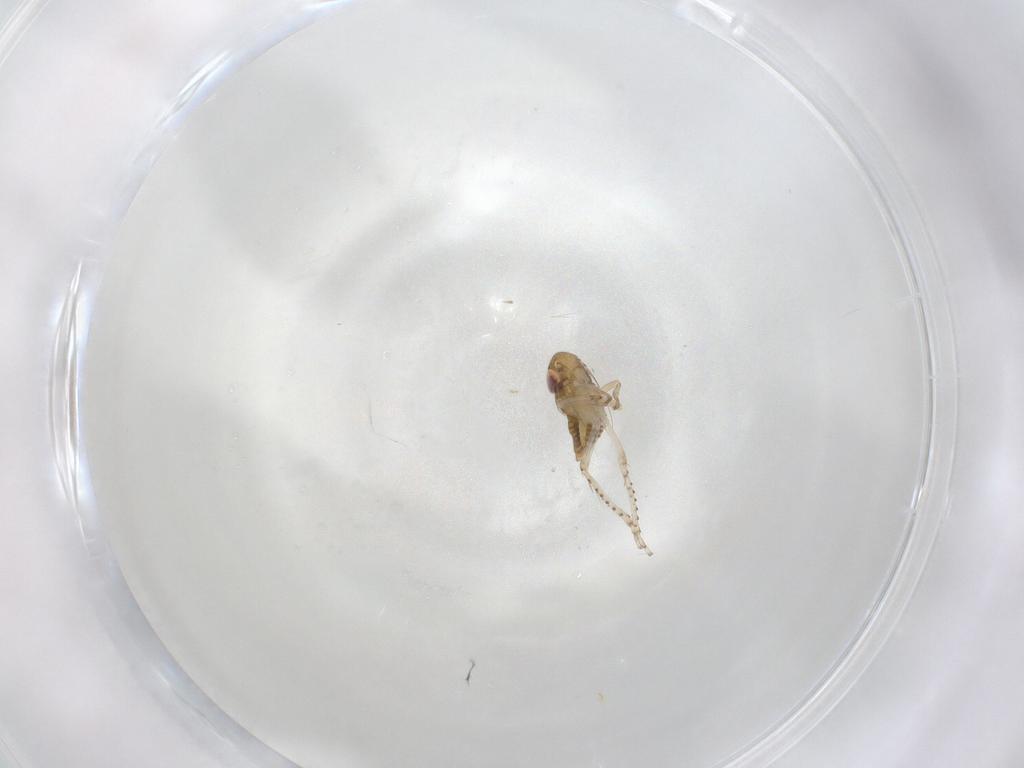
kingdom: Animalia
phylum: Arthropoda
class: Insecta
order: Hemiptera
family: Cicadellidae
